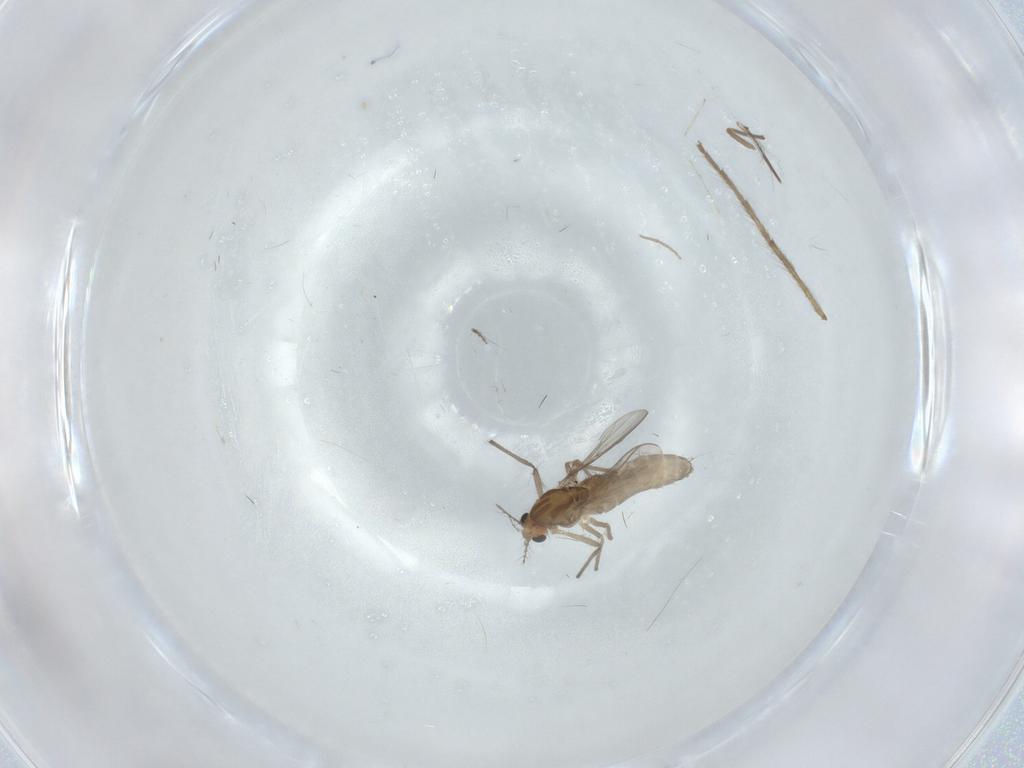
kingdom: Animalia
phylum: Arthropoda
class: Insecta
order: Diptera
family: Chironomidae
